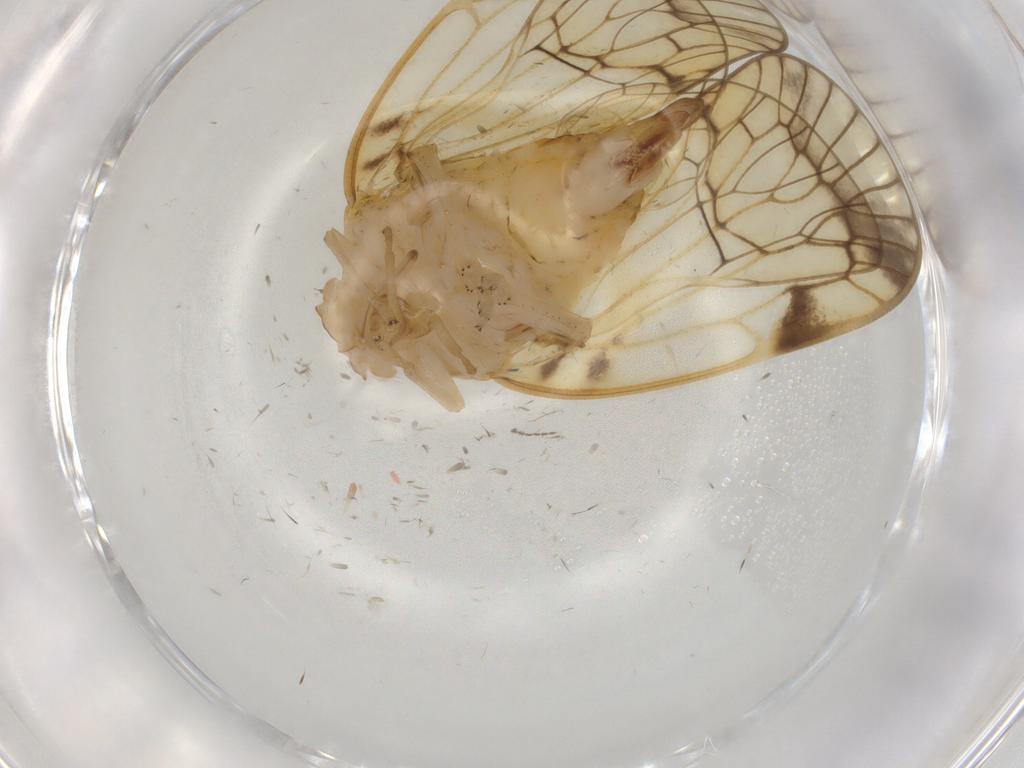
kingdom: Animalia
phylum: Arthropoda
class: Insecta
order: Hemiptera
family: Cixiidae
